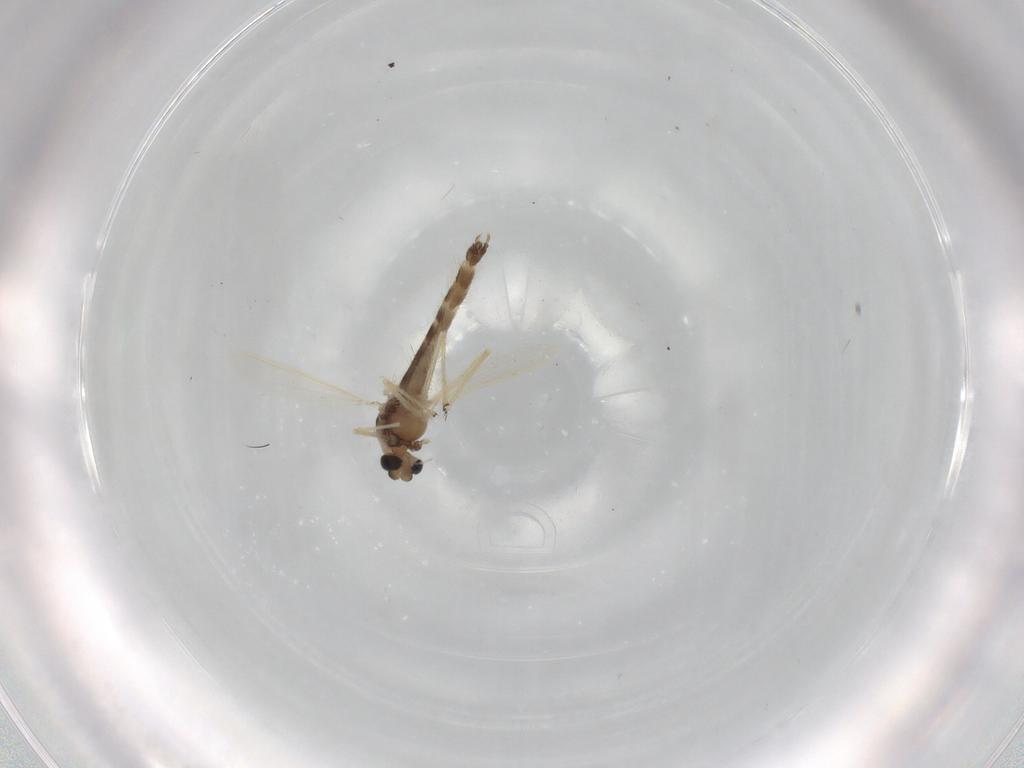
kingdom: Animalia
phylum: Arthropoda
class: Insecta
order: Diptera
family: Chironomidae
